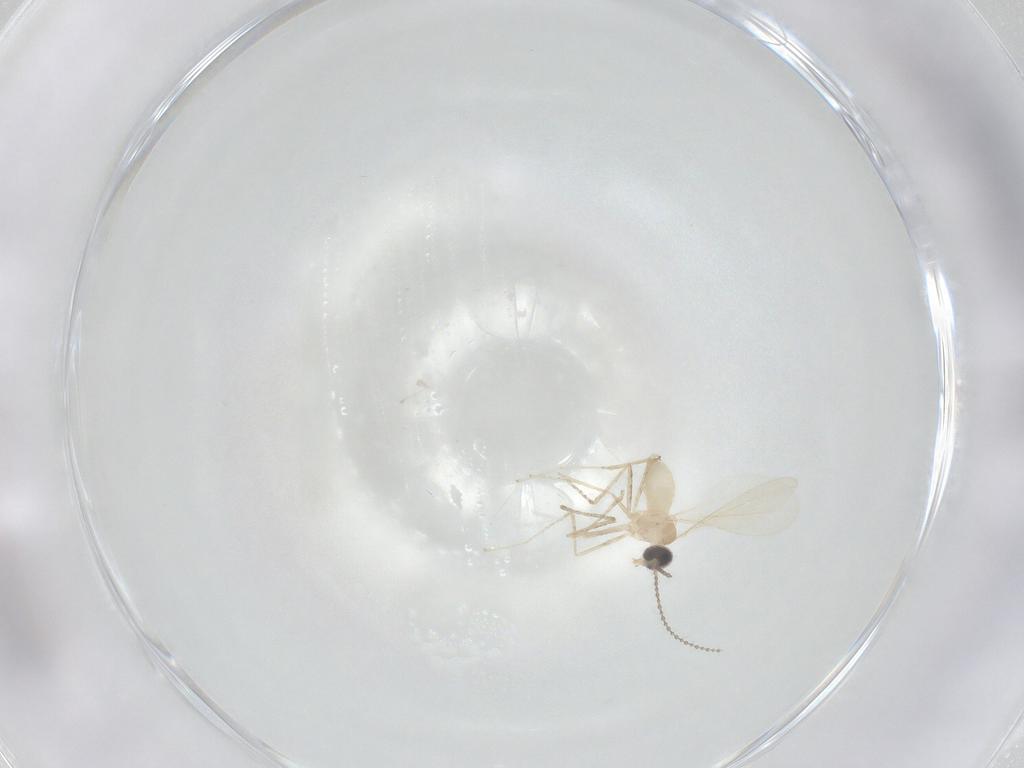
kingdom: Animalia
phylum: Arthropoda
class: Insecta
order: Diptera
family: Cecidomyiidae
